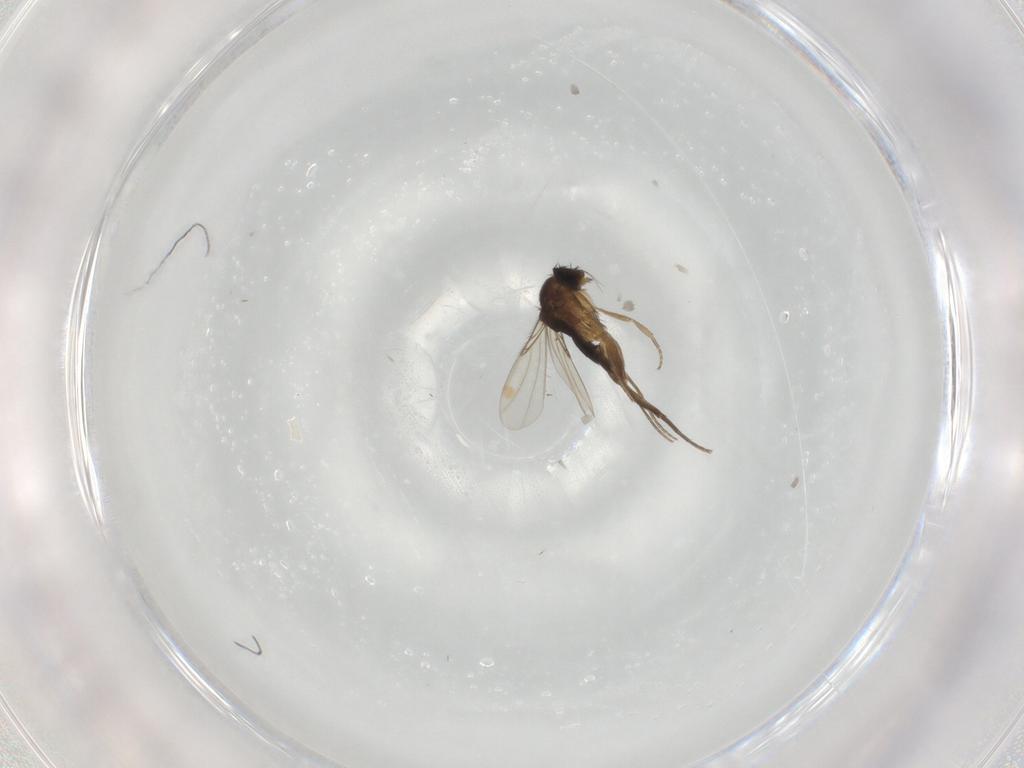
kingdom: Animalia
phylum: Arthropoda
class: Insecta
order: Diptera
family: Phoridae
